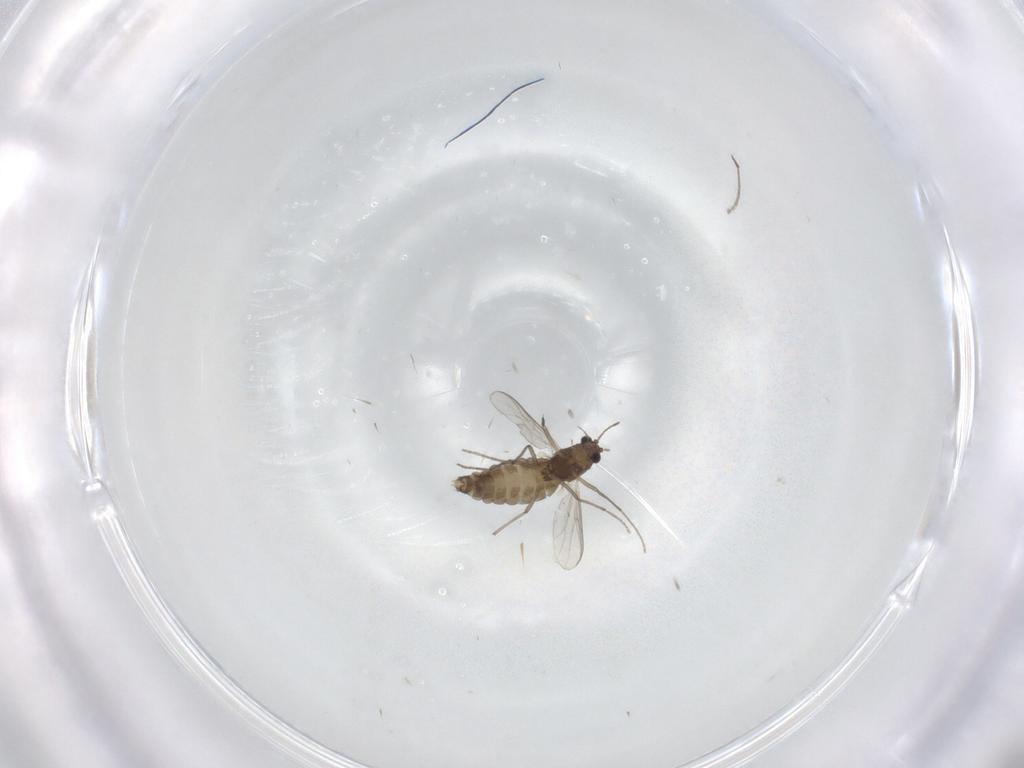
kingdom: Animalia
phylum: Arthropoda
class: Insecta
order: Diptera
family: Chironomidae
